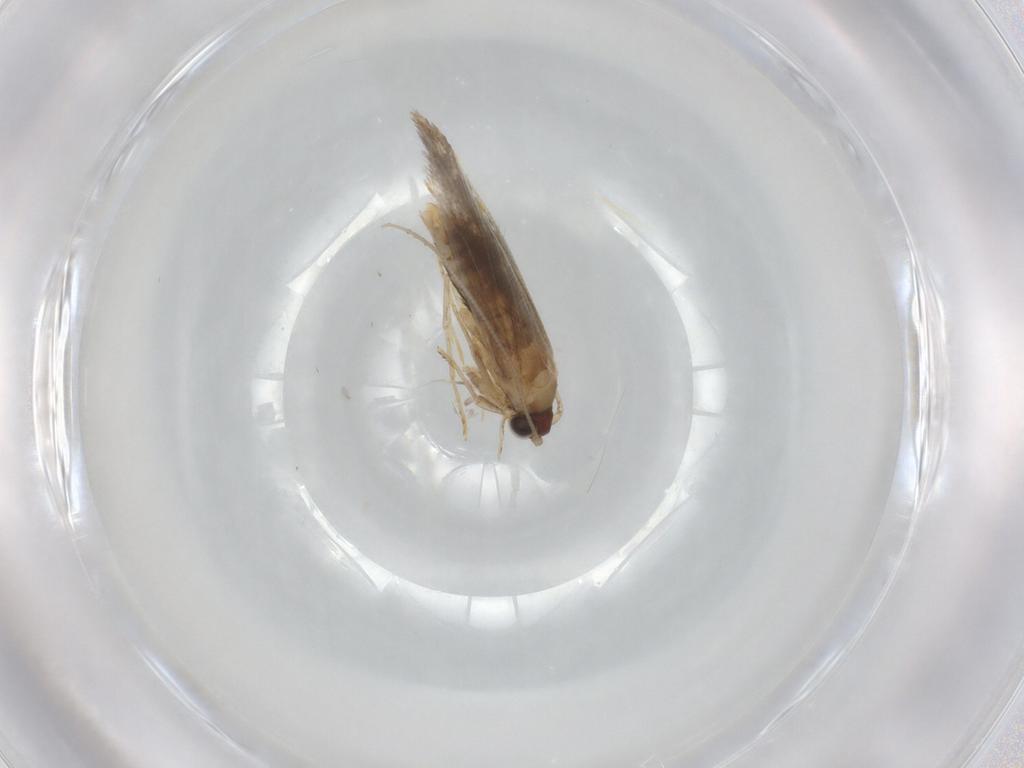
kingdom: Animalia
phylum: Arthropoda
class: Insecta
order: Lepidoptera
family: Tineidae
